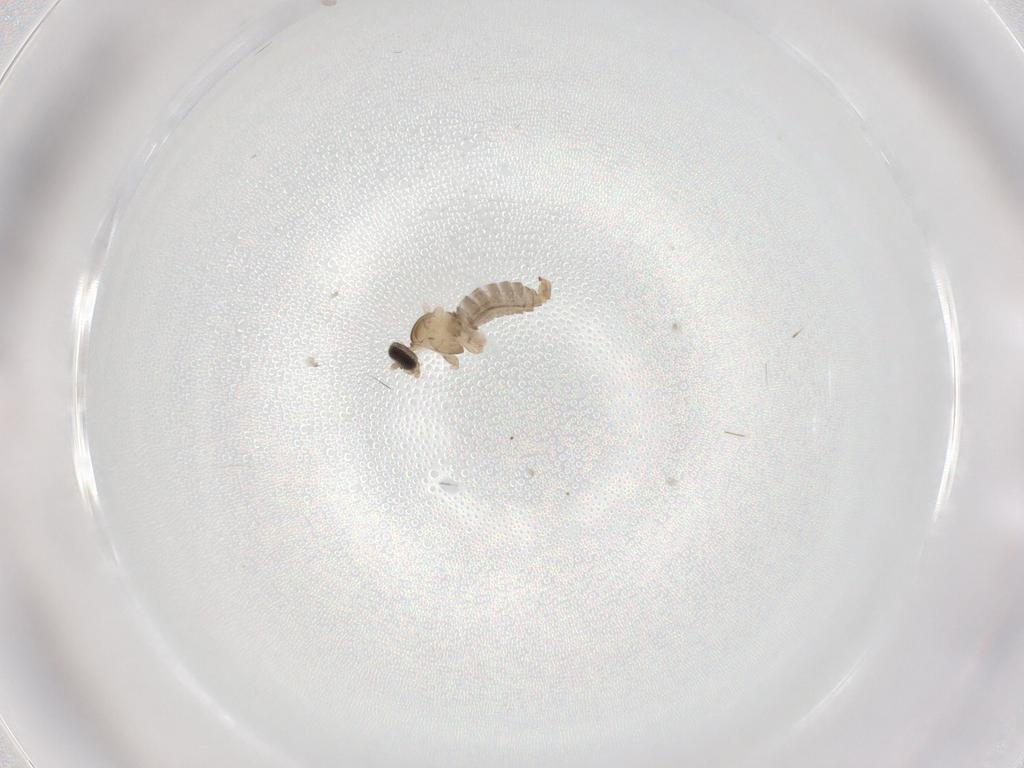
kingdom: Animalia
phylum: Arthropoda
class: Insecta
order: Diptera
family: Cecidomyiidae
